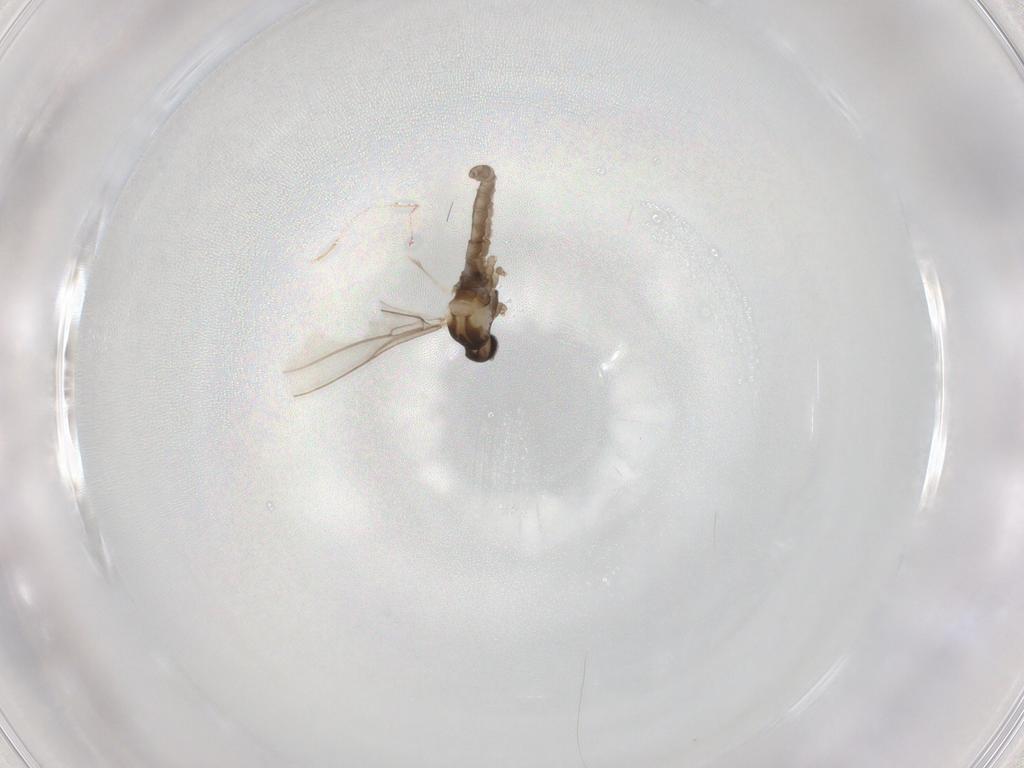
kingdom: Animalia
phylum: Arthropoda
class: Insecta
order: Diptera
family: Cecidomyiidae
